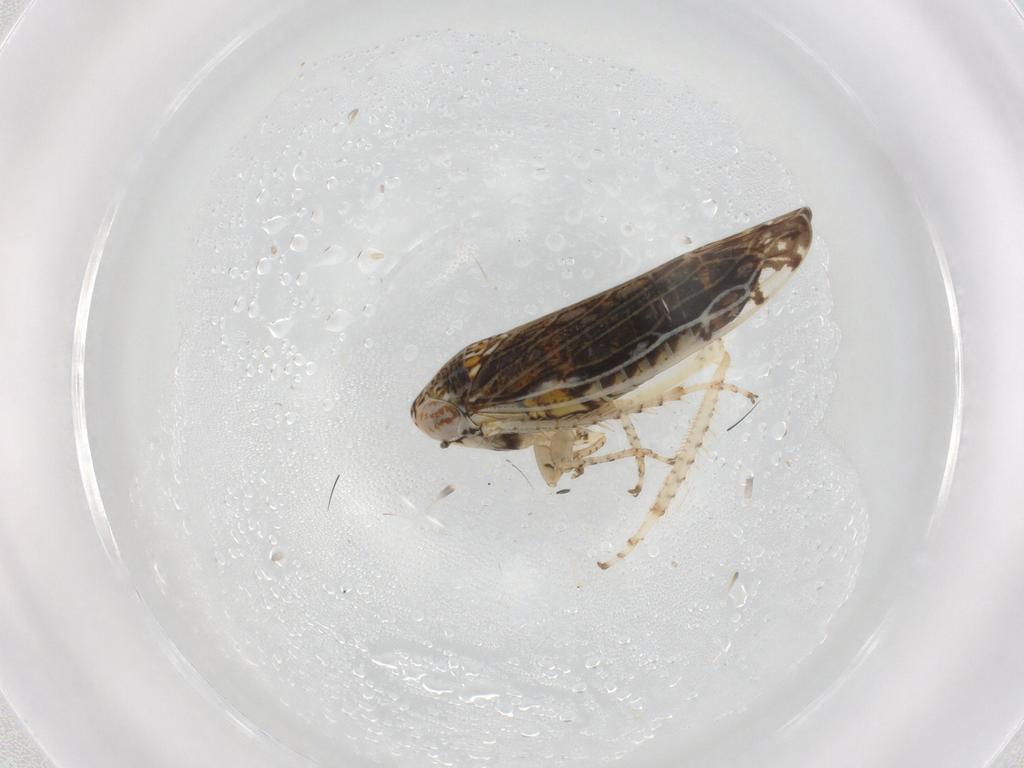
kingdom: Animalia
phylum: Arthropoda
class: Insecta
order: Hemiptera
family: Cicadellidae
